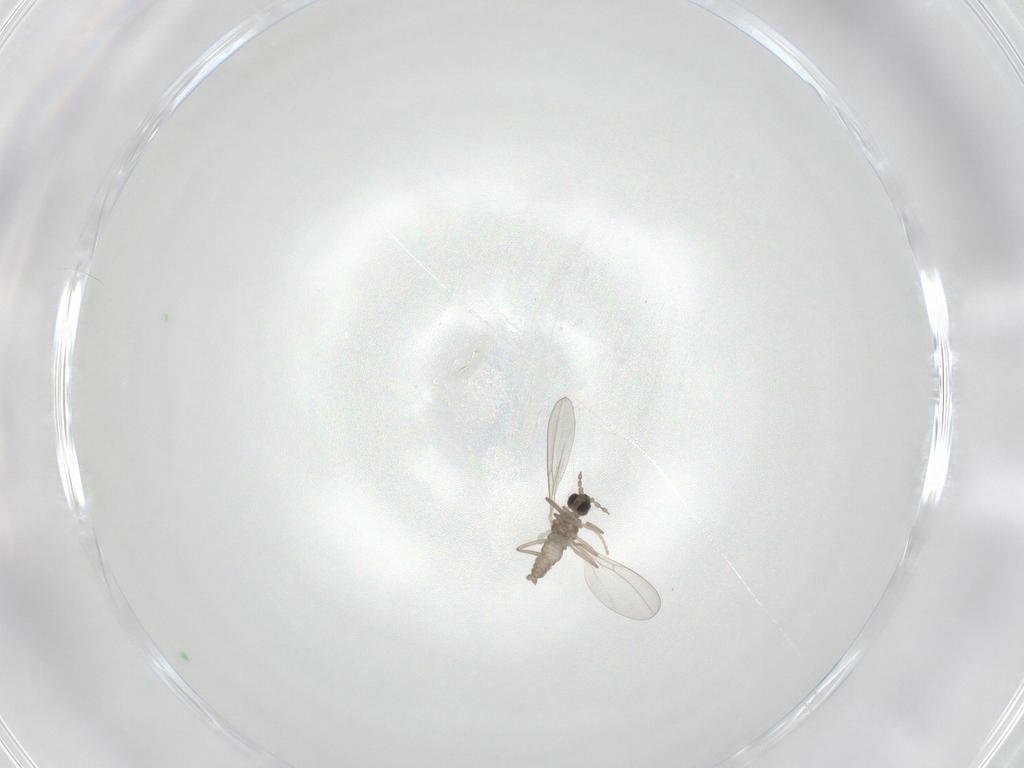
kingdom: Animalia
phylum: Arthropoda
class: Insecta
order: Diptera
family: Cecidomyiidae
